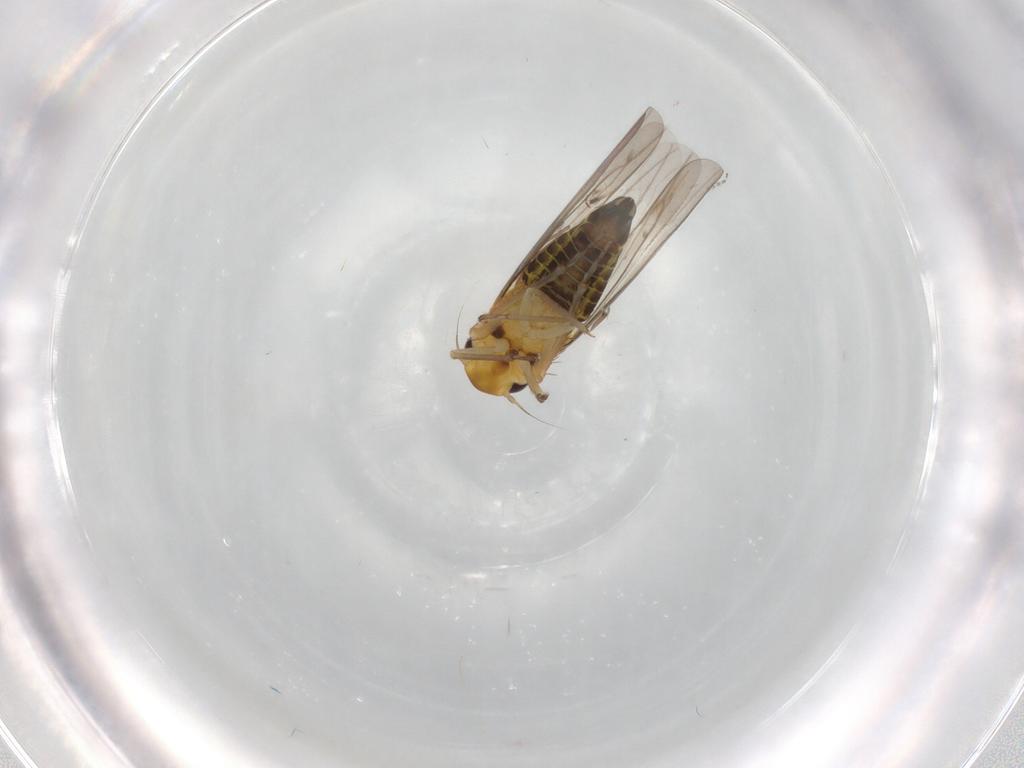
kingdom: Animalia
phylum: Arthropoda
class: Insecta
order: Hemiptera
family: Cicadellidae
